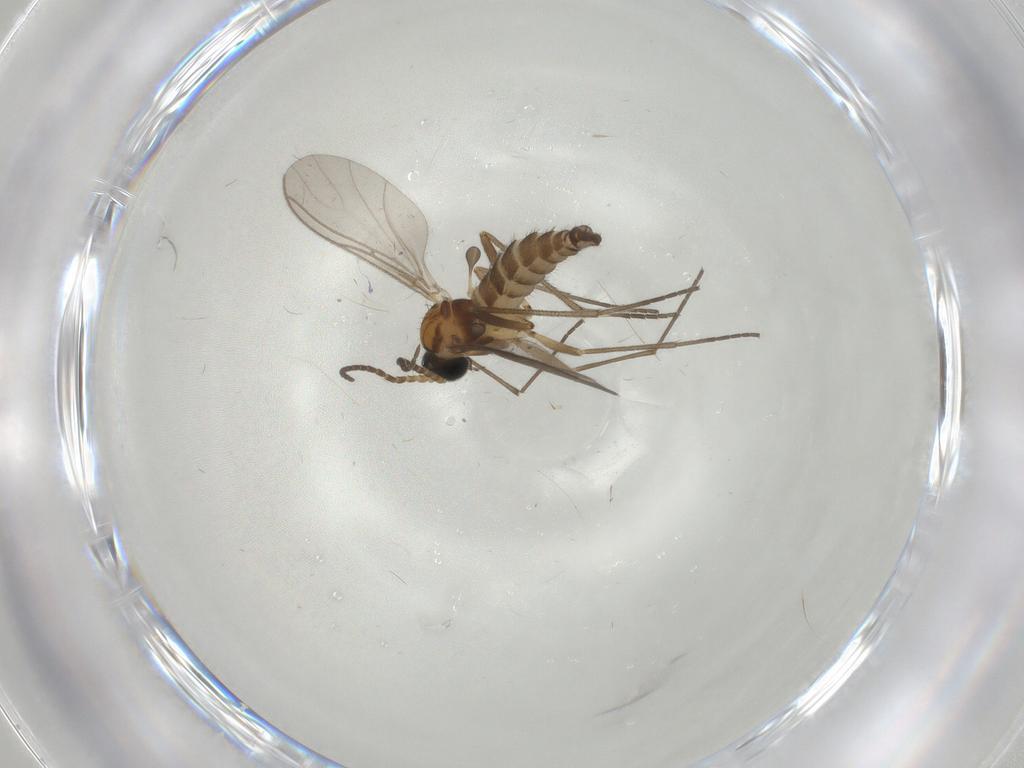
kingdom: Animalia
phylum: Arthropoda
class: Insecta
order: Diptera
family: Sciaridae
